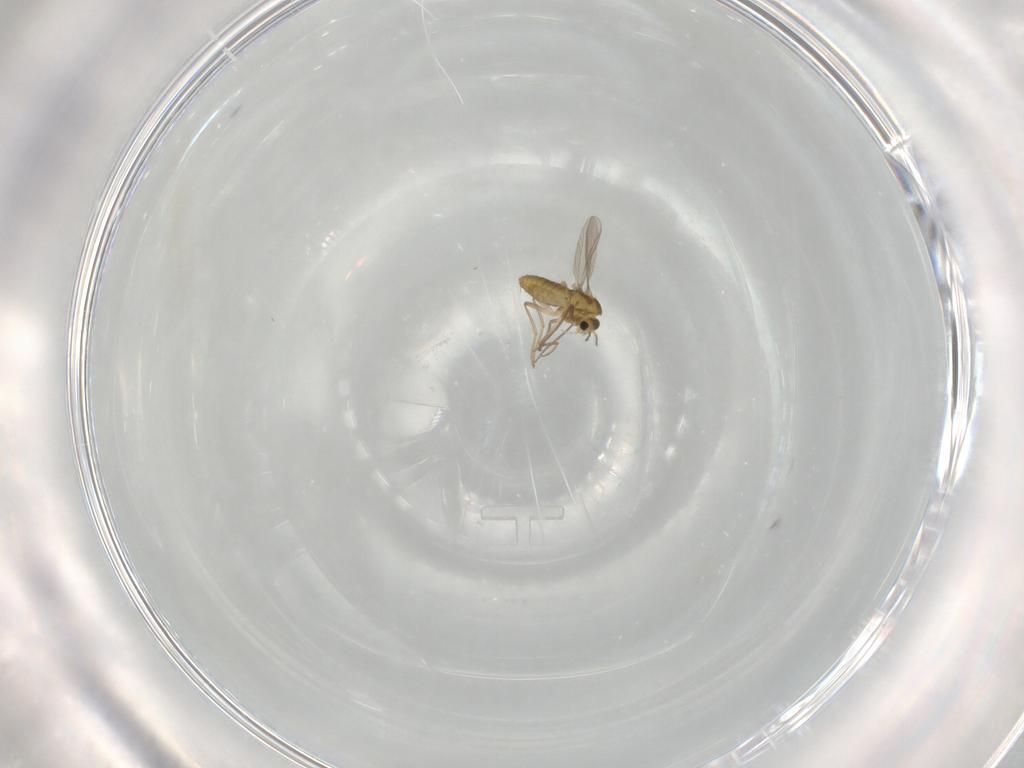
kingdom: Animalia
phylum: Arthropoda
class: Insecta
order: Diptera
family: Chironomidae
